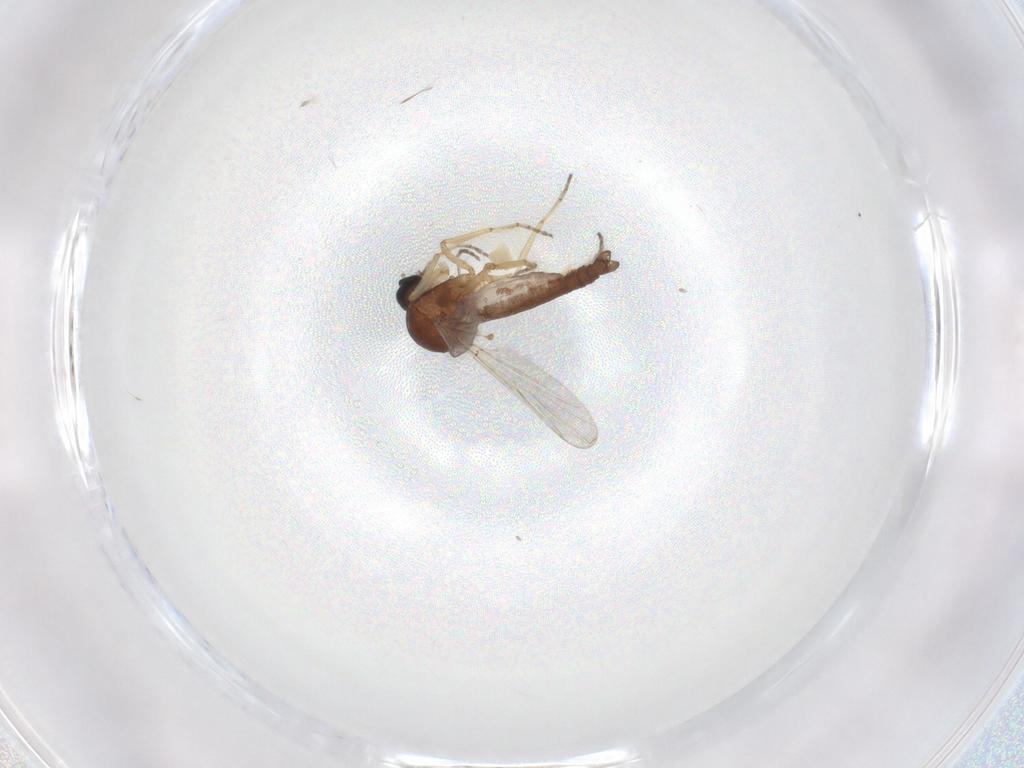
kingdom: Animalia
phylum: Arthropoda
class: Insecta
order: Diptera
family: Ceratopogonidae
